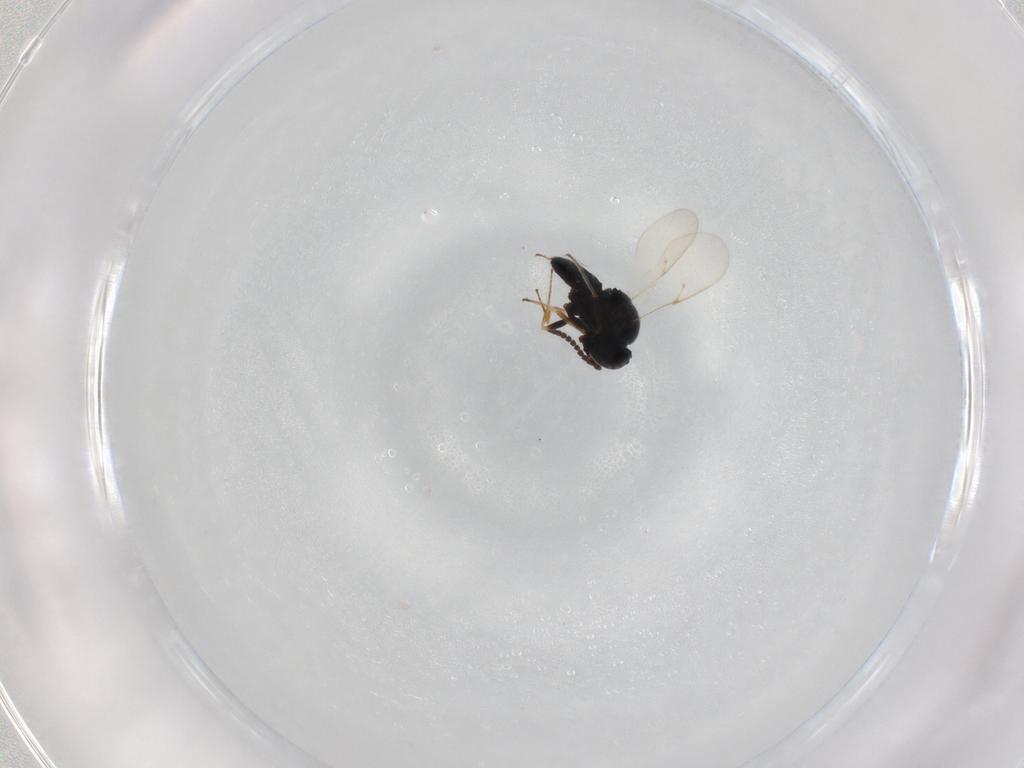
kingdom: Animalia
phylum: Arthropoda
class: Insecta
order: Hymenoptera
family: Scelionidae
